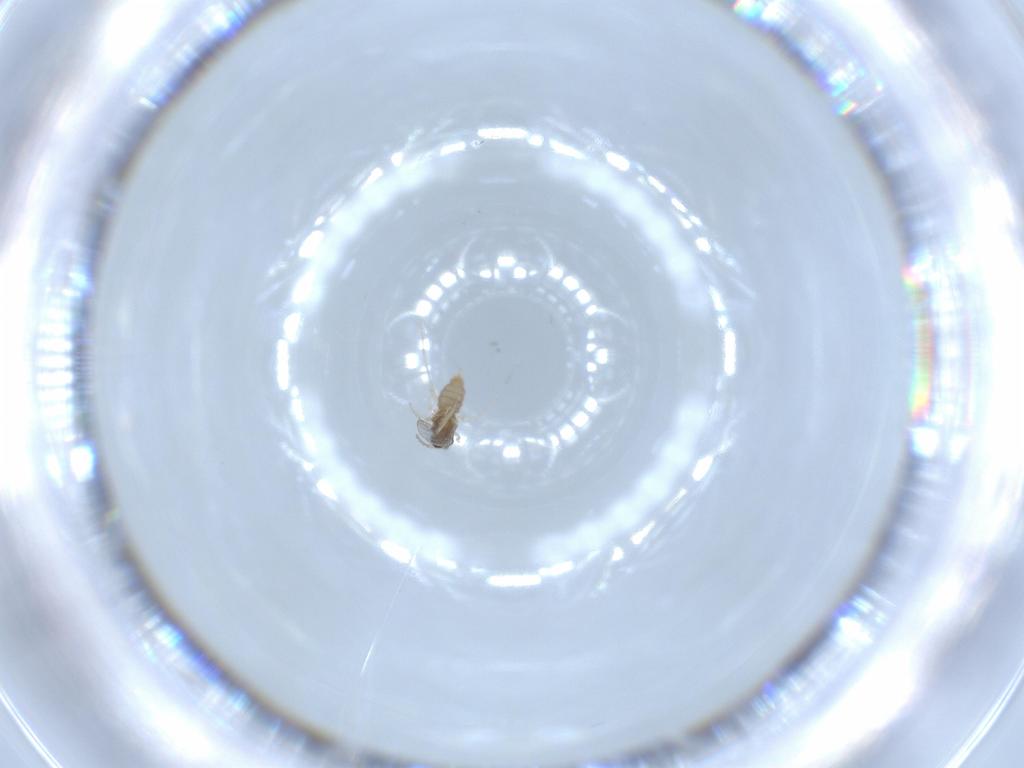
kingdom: Animalia
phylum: Arthropoda
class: Insecta
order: Diptera
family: Cecidomyiidae
